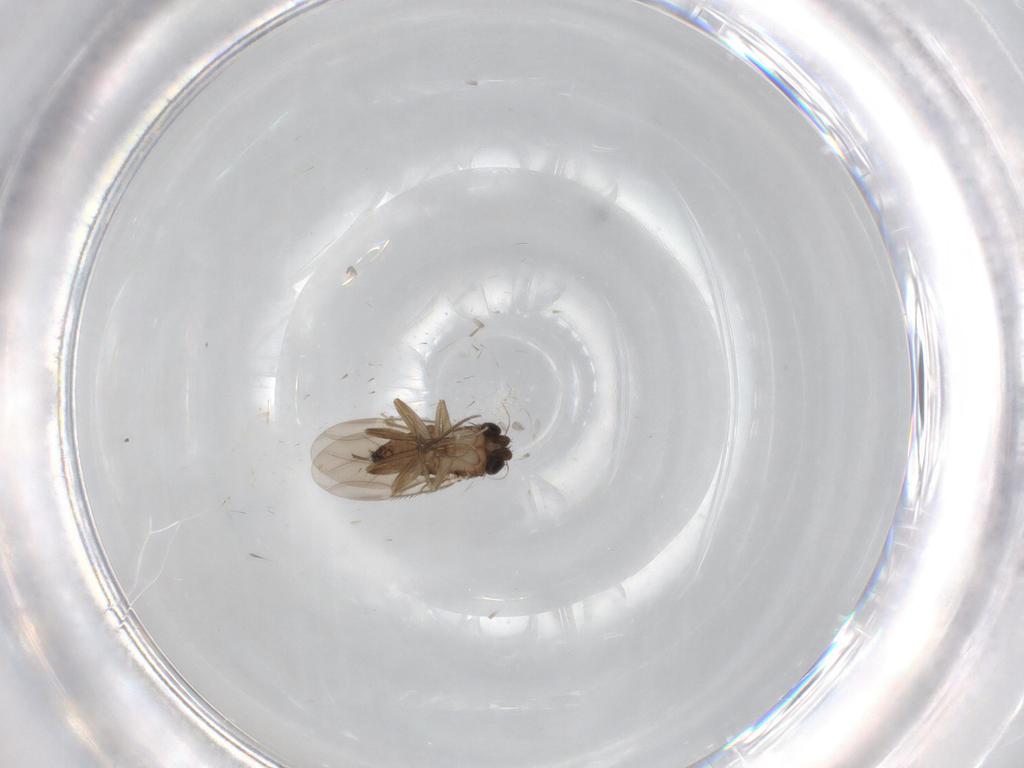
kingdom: Animalia
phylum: Arthropoda
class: Insecta
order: Diptera
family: Phoridae
